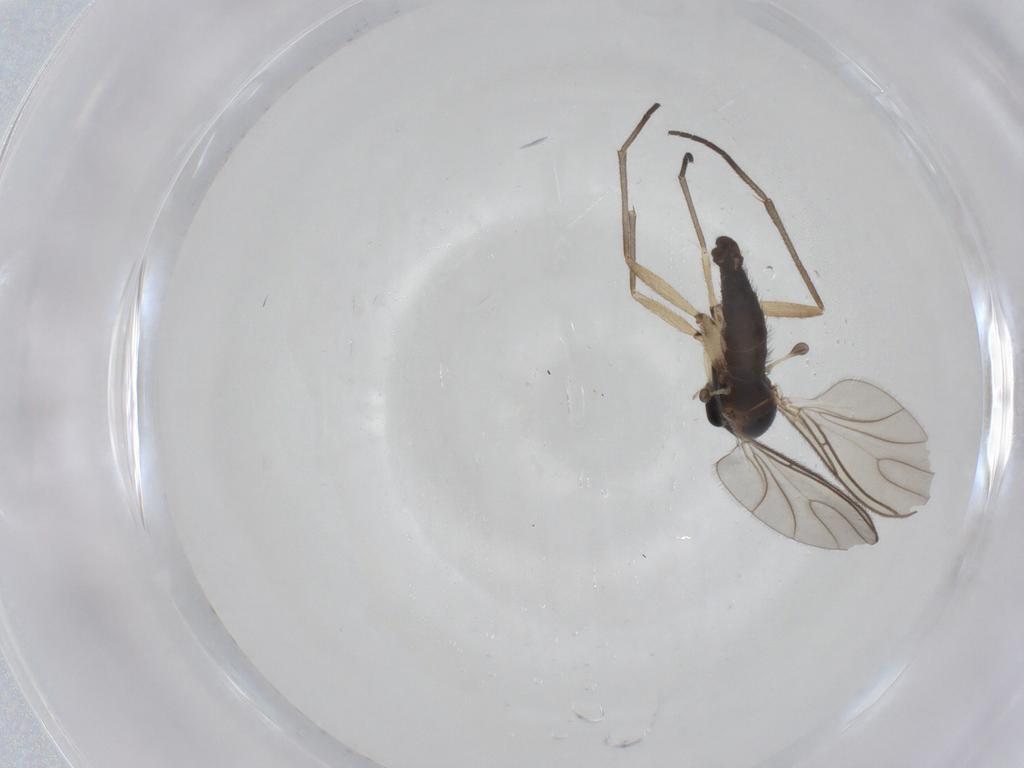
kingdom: Animalia
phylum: Arthropoda
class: Insecta
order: Diptera
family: Sciaridae
